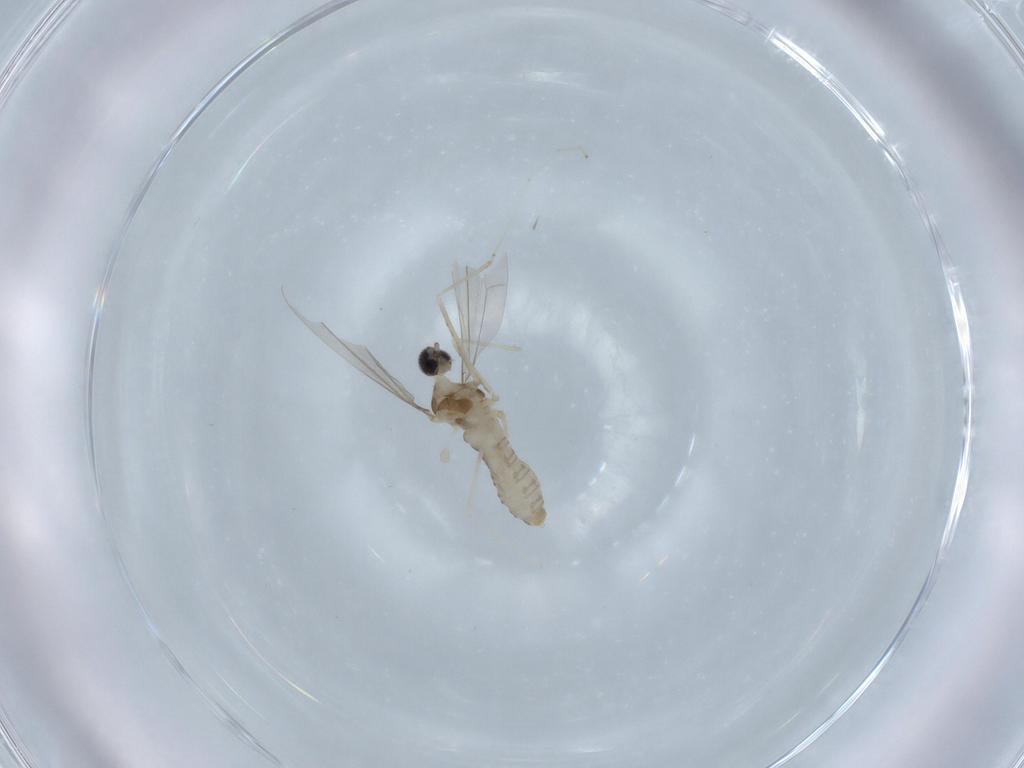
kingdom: Animalia
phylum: Arthropoda
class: Insecta
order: Diptera
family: Cecidomyiidae
